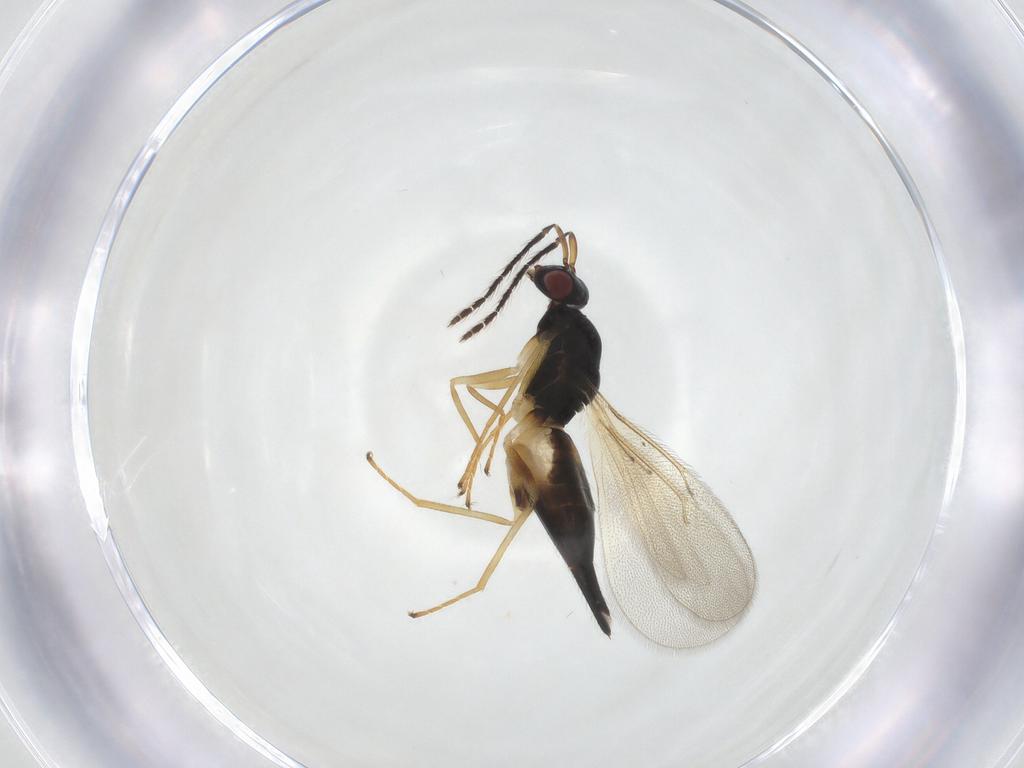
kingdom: Animalia
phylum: Arthropoda
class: Insecta
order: Hymenoptera
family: Eulophidae
